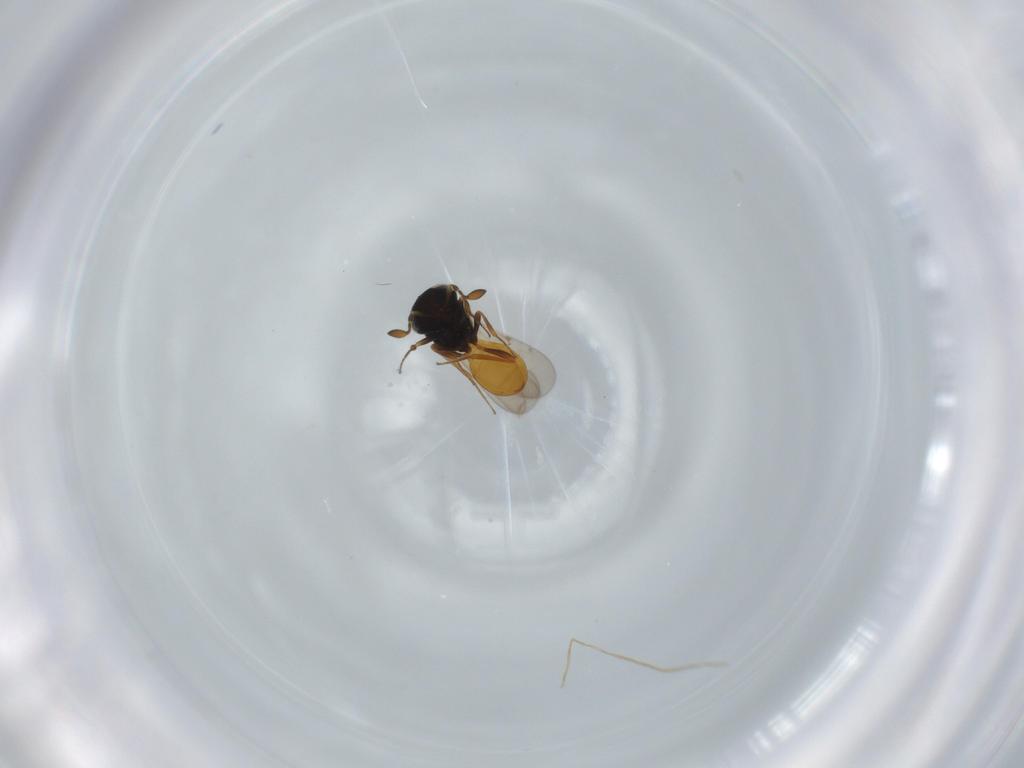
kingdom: Animalia
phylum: Arthropoda
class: Insecta
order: Hymenoptera
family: Scelionidae
